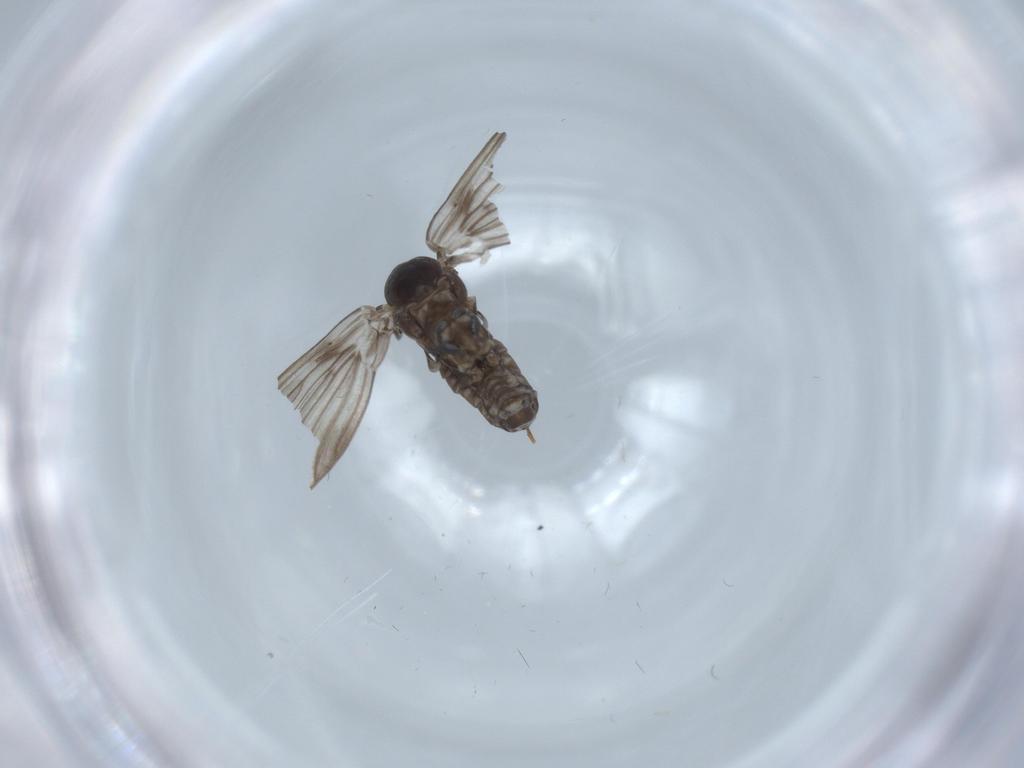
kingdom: Animalia
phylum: Arthropoda
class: Insecta
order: Diptera
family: Psychodidae
